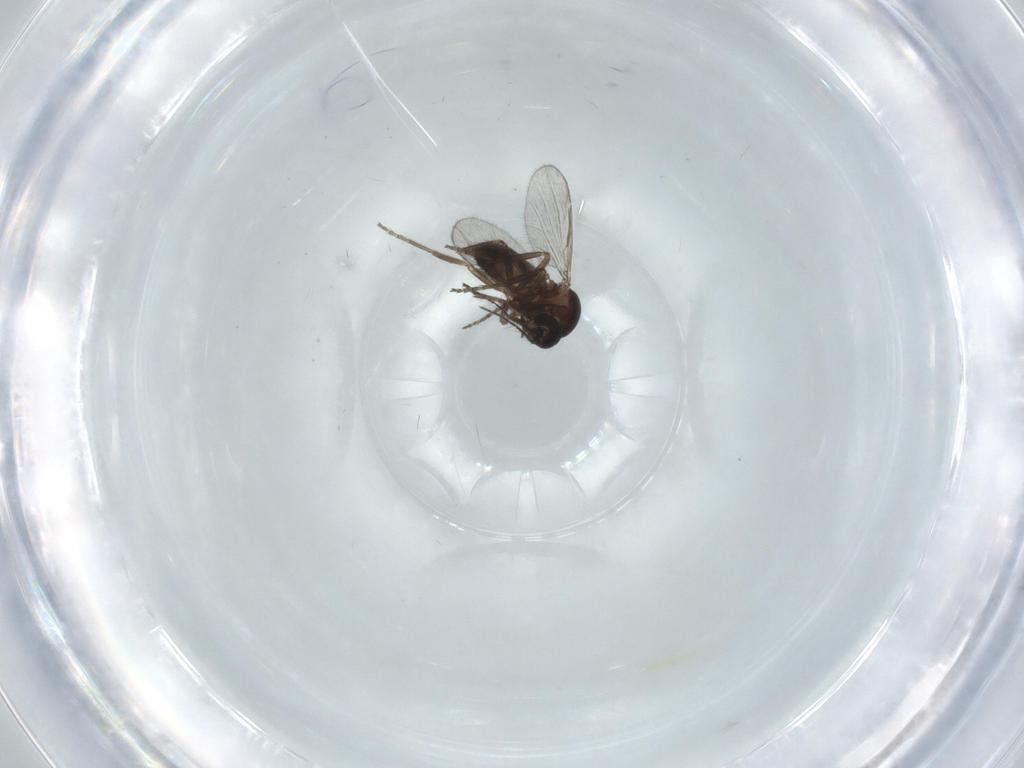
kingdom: Animalia
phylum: Arthropoda
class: Insecta
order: Diptera
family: Cecidomyiidae
